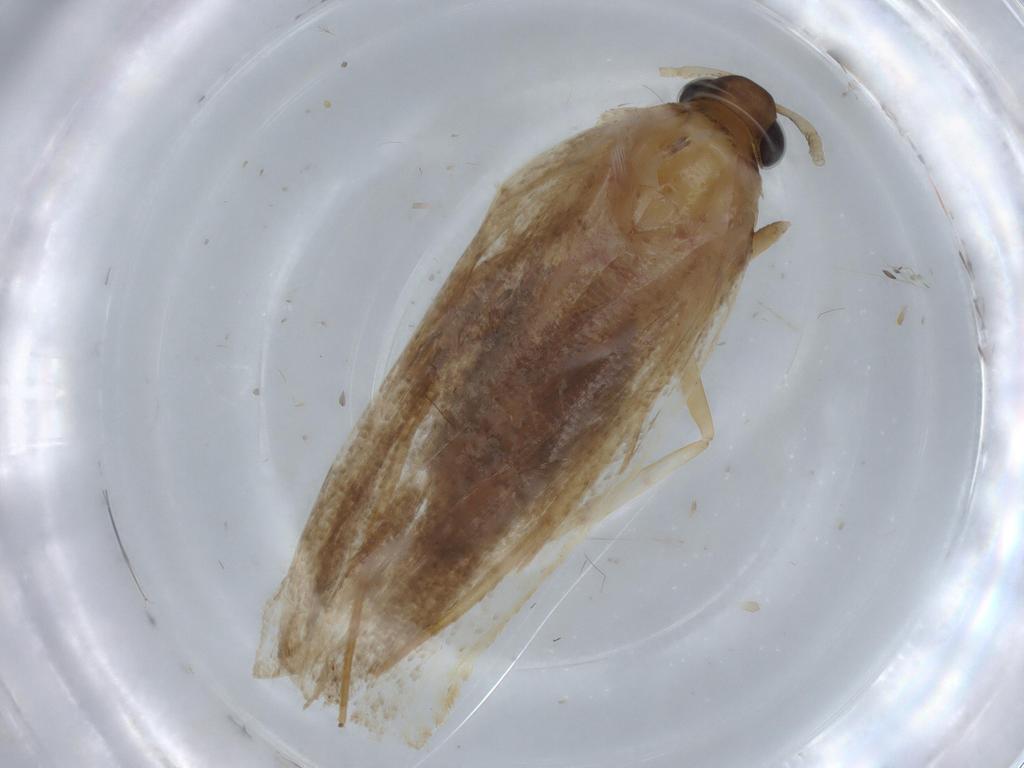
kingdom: Animalia
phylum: Arthropoda
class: Insecta
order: Lepidoptera
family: Lecithoceridae
